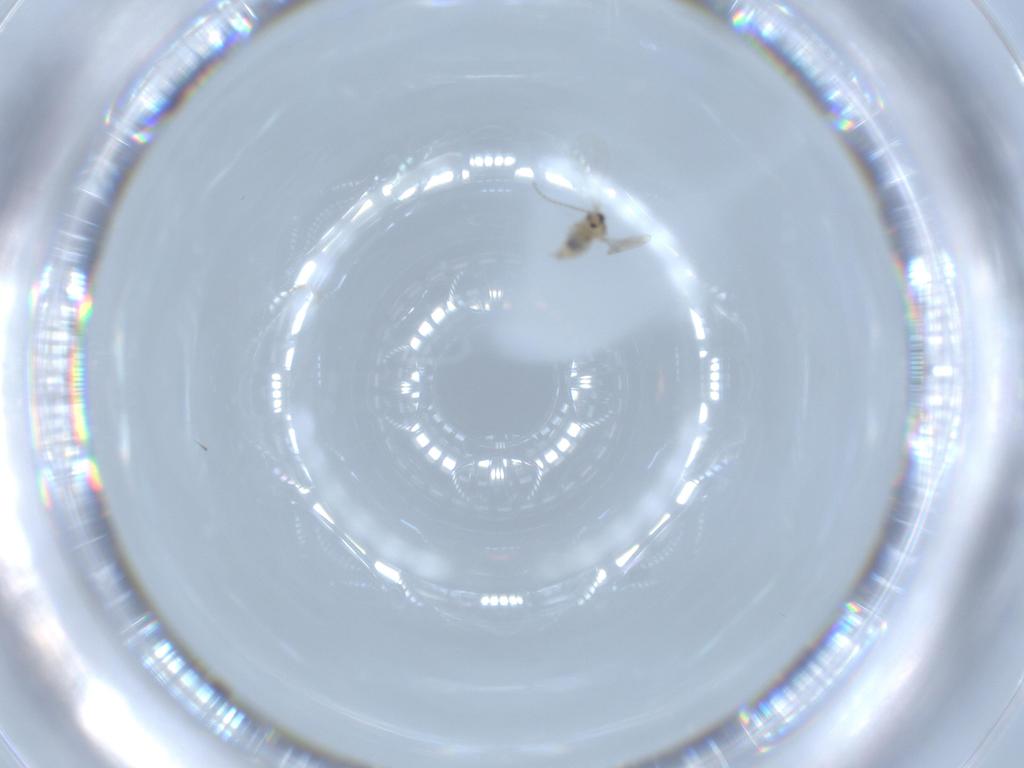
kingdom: Animalia
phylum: Arthropoda
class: Insecta
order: Diptera
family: Cecidomyiidae
